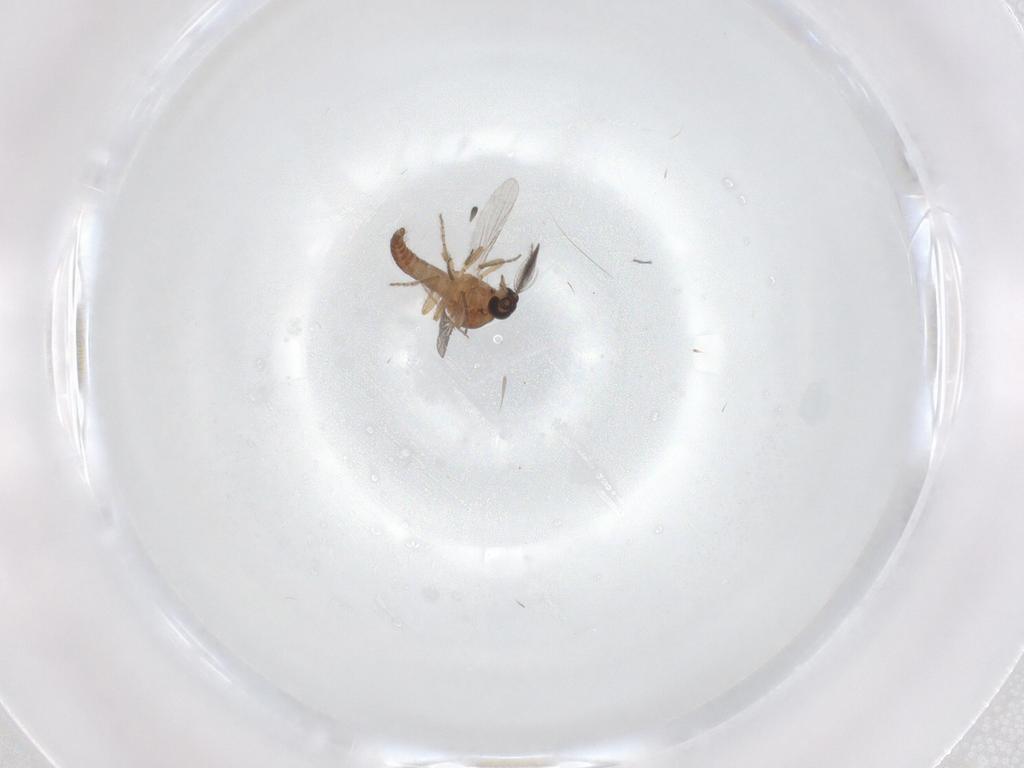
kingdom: Animalia
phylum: Arthropoda
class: Insecta
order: Diptera
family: Ceratopogonidae
